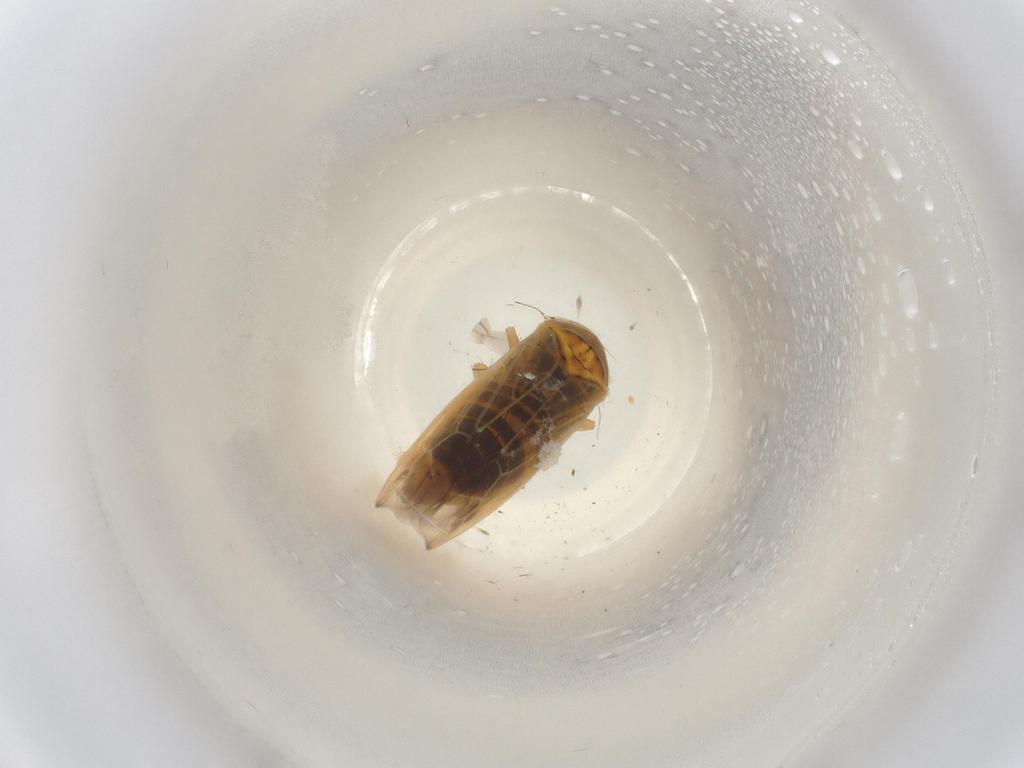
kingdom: Animalia
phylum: Arthropoda
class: Insecta
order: Hemiptera
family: Cicadellidae
